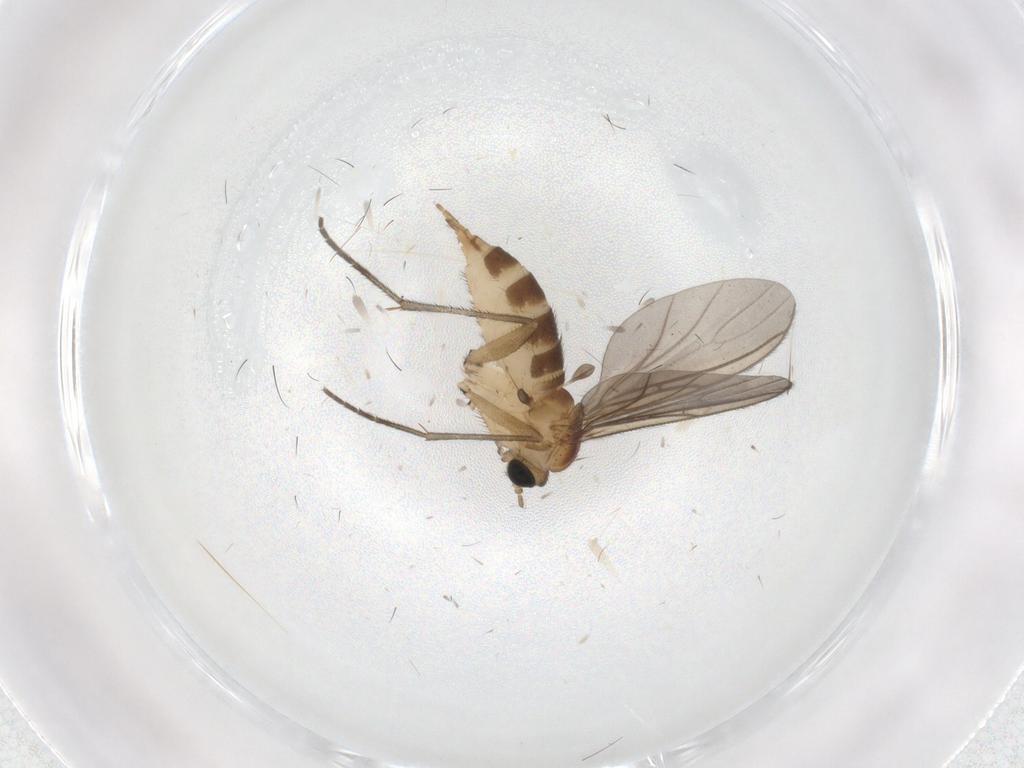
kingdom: Animalia
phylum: Arthropoda
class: Insecta
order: Diptera
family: Sciaridae
